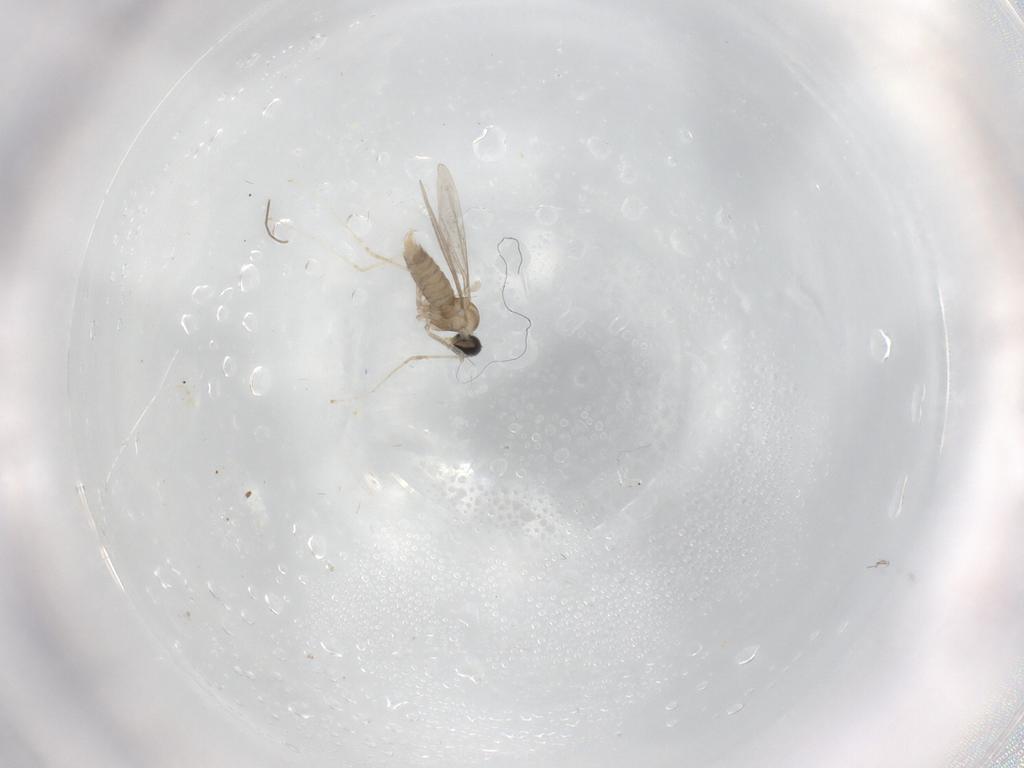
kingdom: Animalia
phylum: Arthropoda
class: Insecta
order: Diptera
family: Cecidomyiidae
